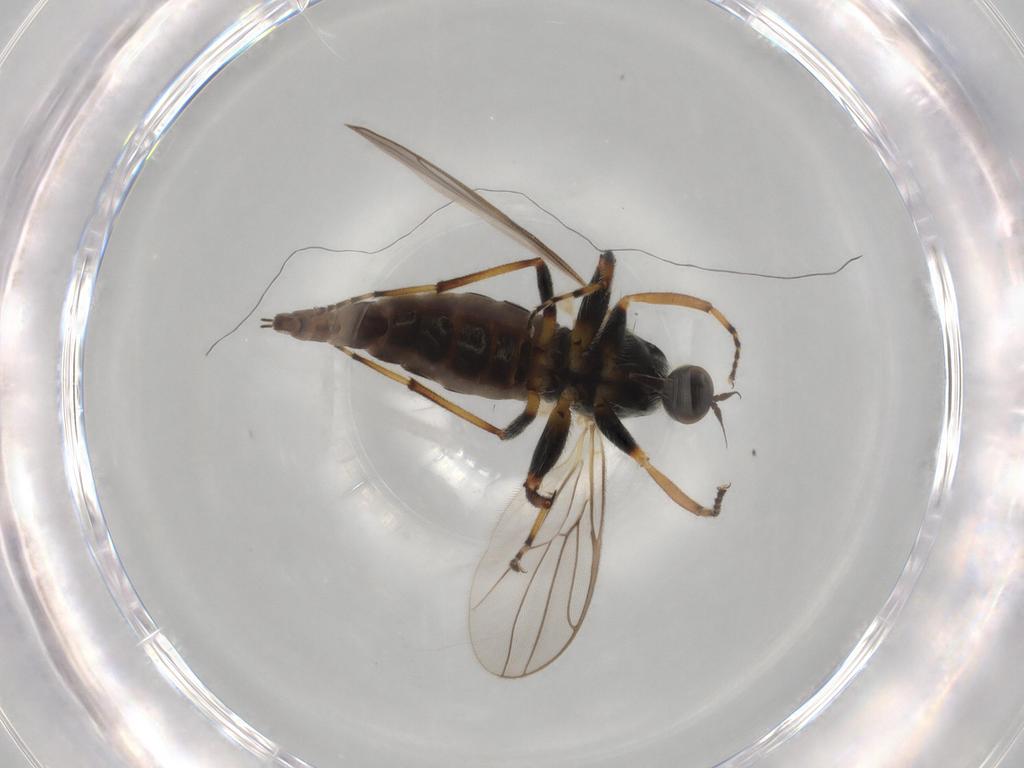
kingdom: Animalia
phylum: Arthropoda
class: Insecta
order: Diptera
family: Hybotidae
